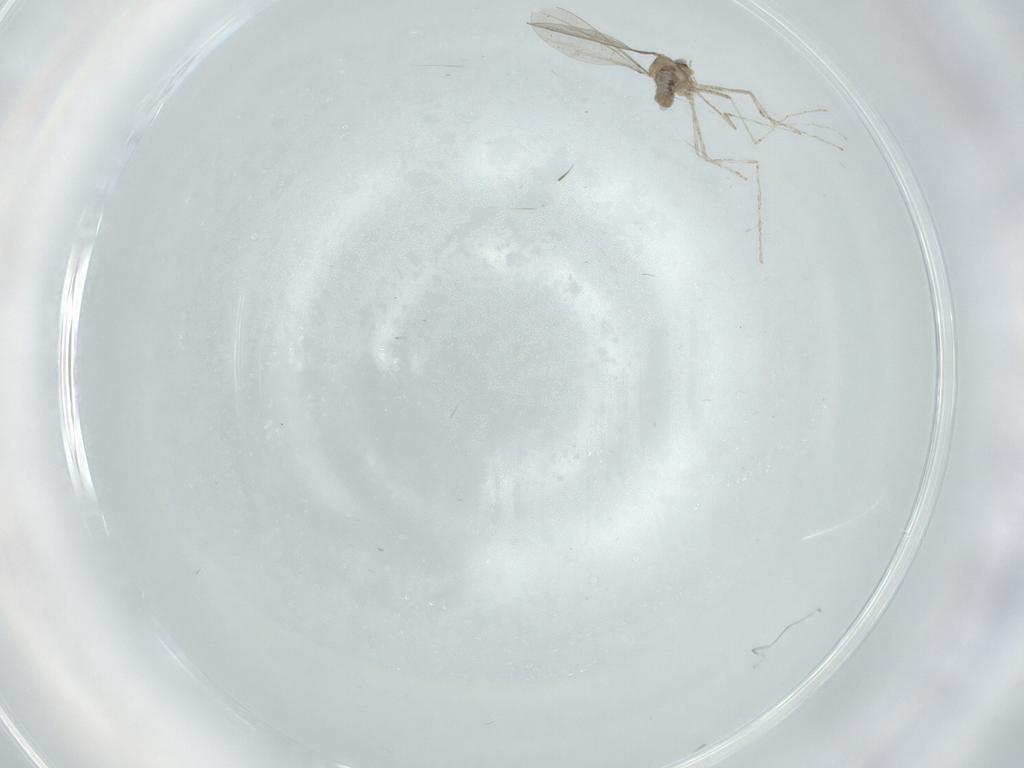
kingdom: Animalia
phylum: Arthropoda
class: Insecta
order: Diptera
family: Cecidomyiidae
